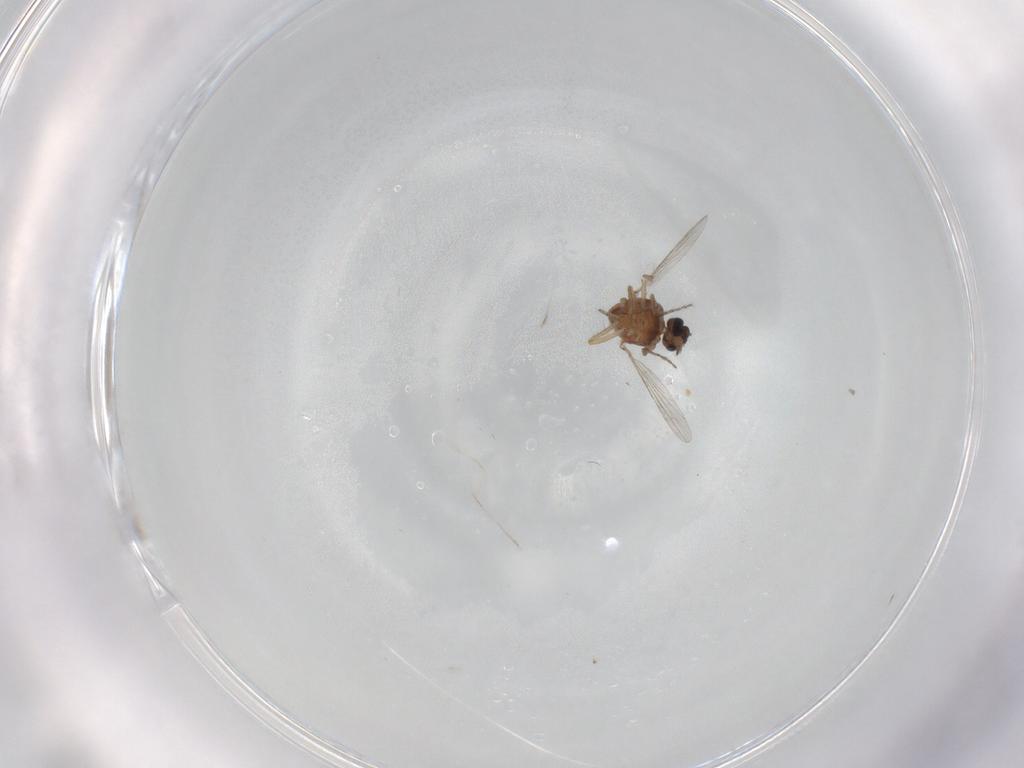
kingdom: Animalia
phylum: Arthropoda
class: Insecta
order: Diptera
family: Ceratopogonidae
